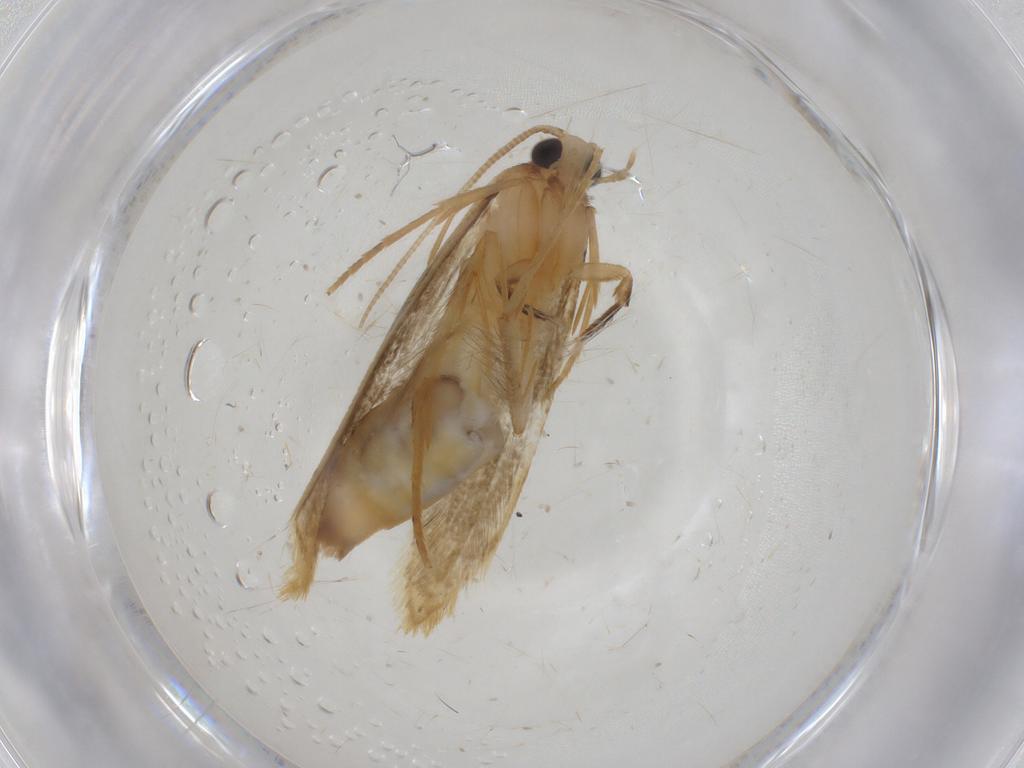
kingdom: Animalia
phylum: Arthropoda
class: Insecta
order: Lepidoptera
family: Tineidae
